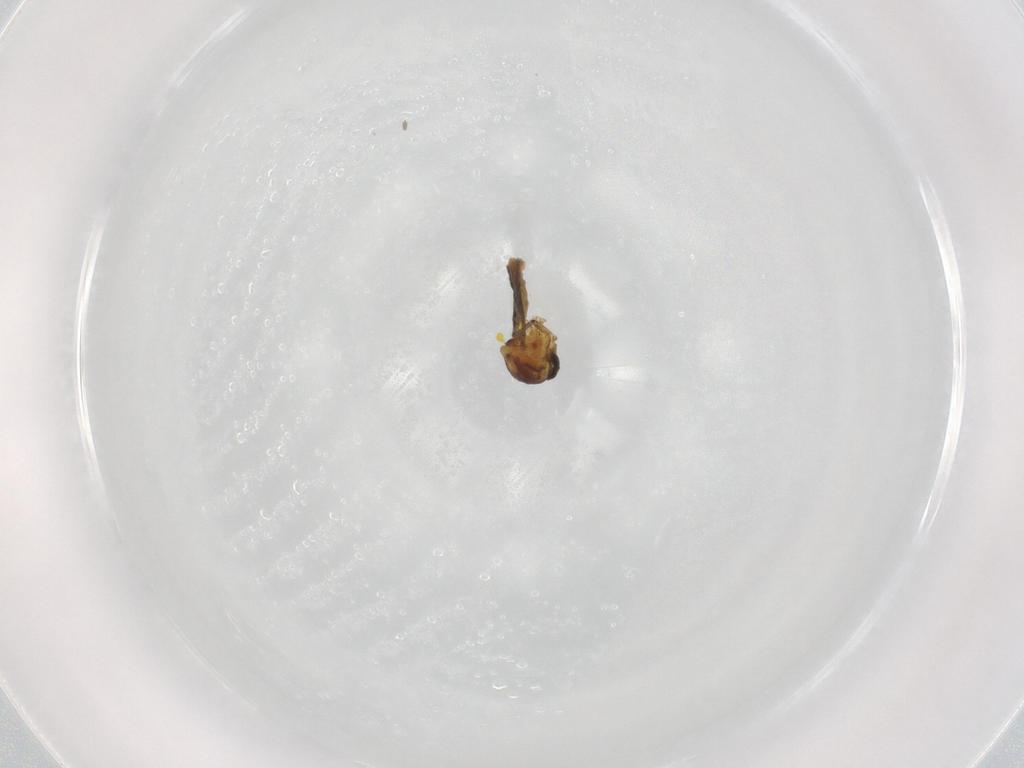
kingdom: Animalia
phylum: Arthropoda
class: Insecta
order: Diptera
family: Ceratopogonidae
